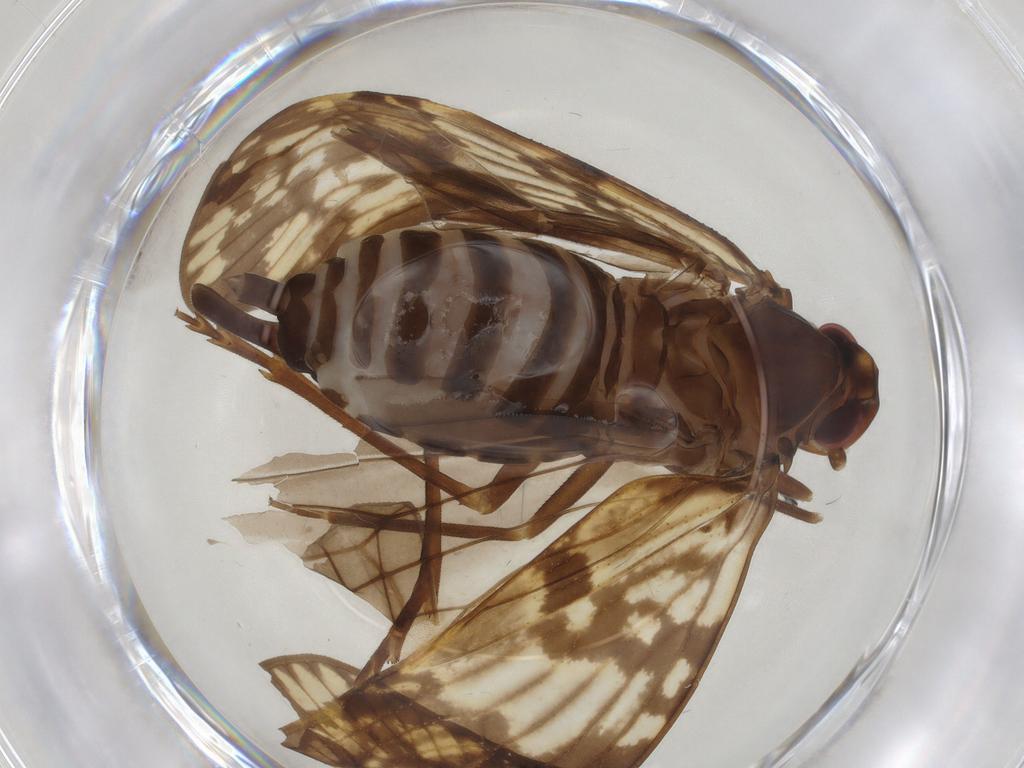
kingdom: Animalia
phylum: Arthropoda
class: Insecta
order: Hemiptera
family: Cixiidae
